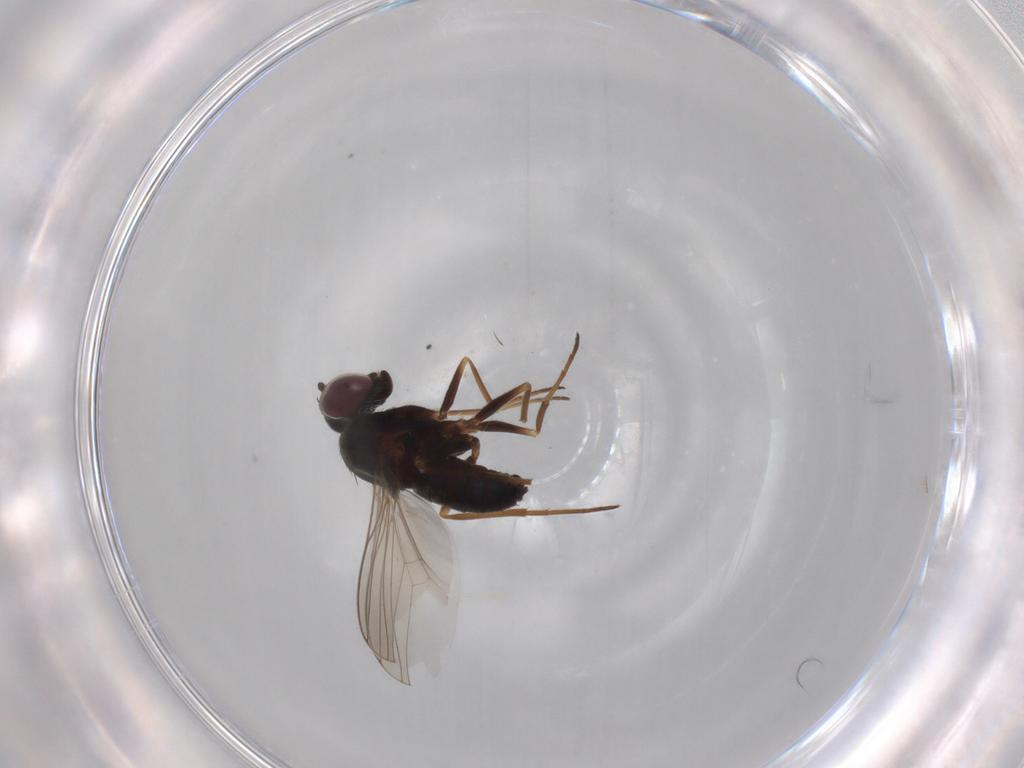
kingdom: Animalia
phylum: Arthropoda
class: Insecta
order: Diptera
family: Dolichopodidae
